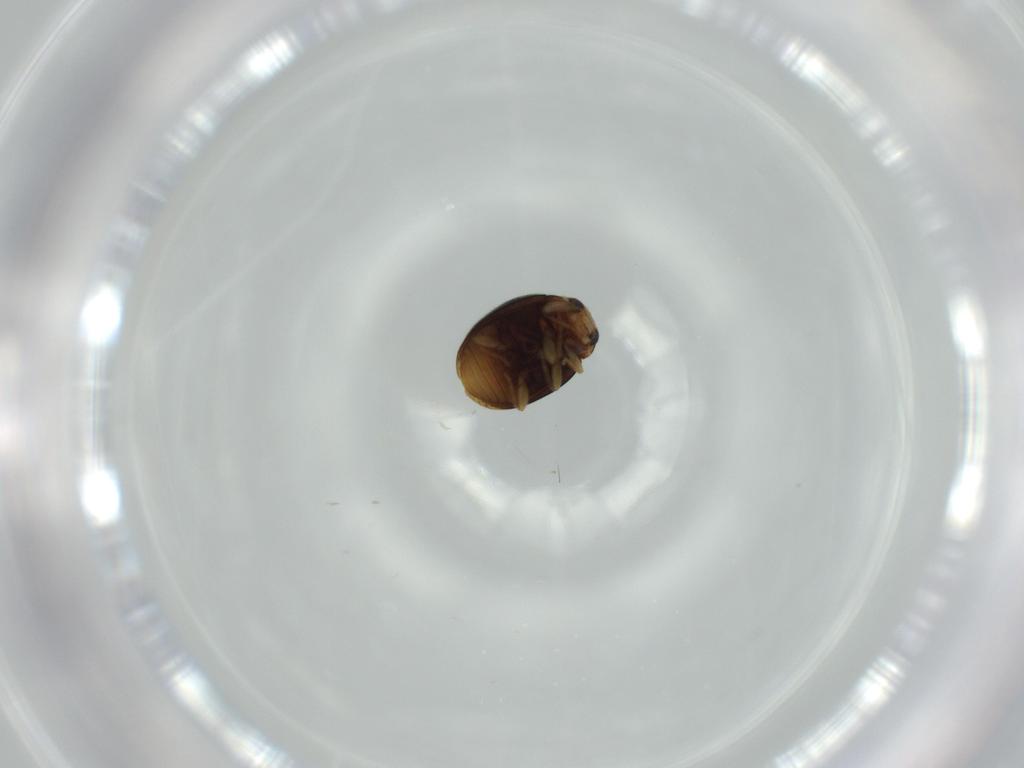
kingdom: Animalia
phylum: Arthropoda
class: Insecta
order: Coleoptera
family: Coccinellidae
